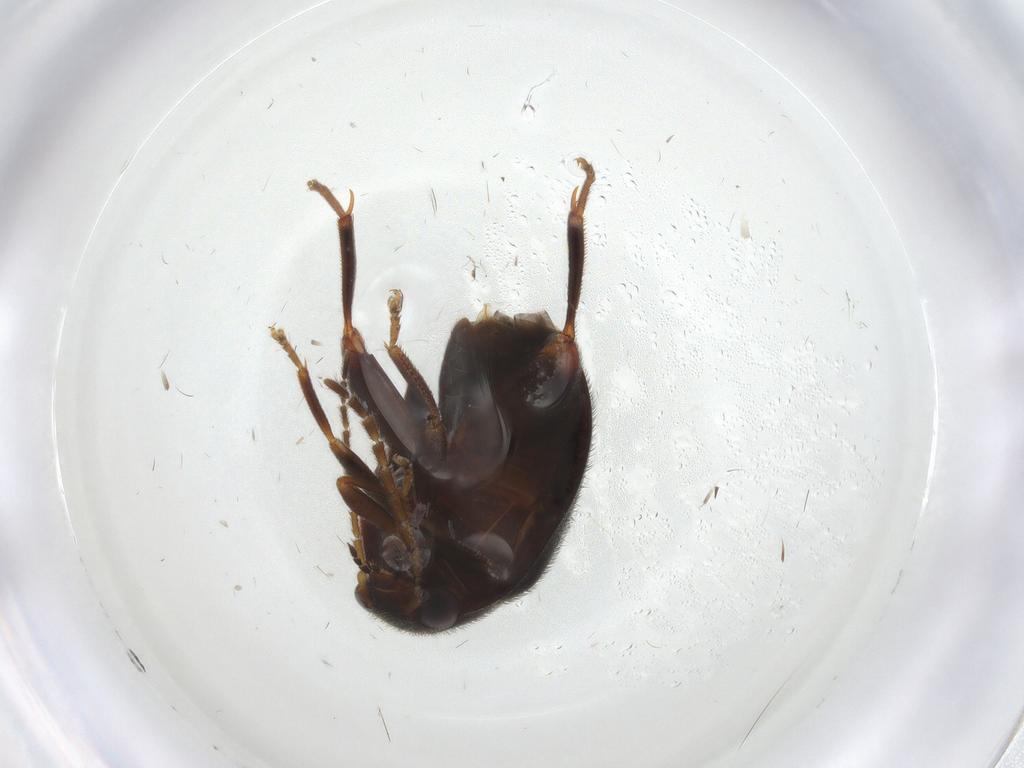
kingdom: Animalia
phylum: Arthropoda
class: Insecta
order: Coleoptera
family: Scirtidae
